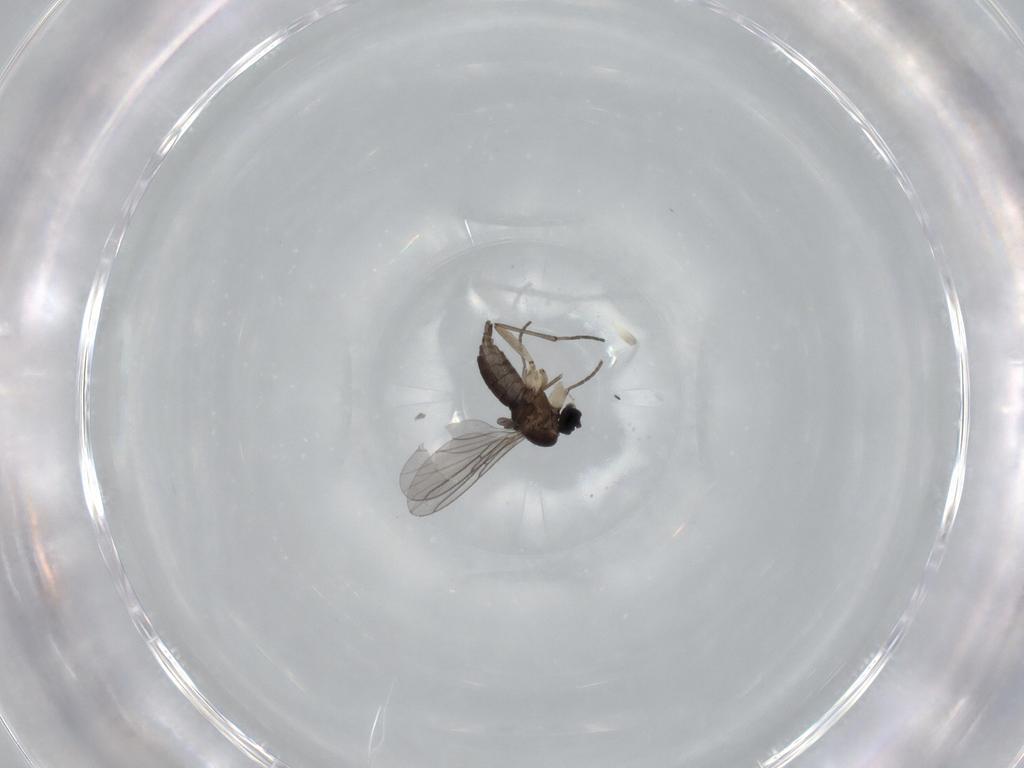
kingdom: Animalia
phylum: Arthropoda
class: Insecta
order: Diptera
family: Sciaridae
